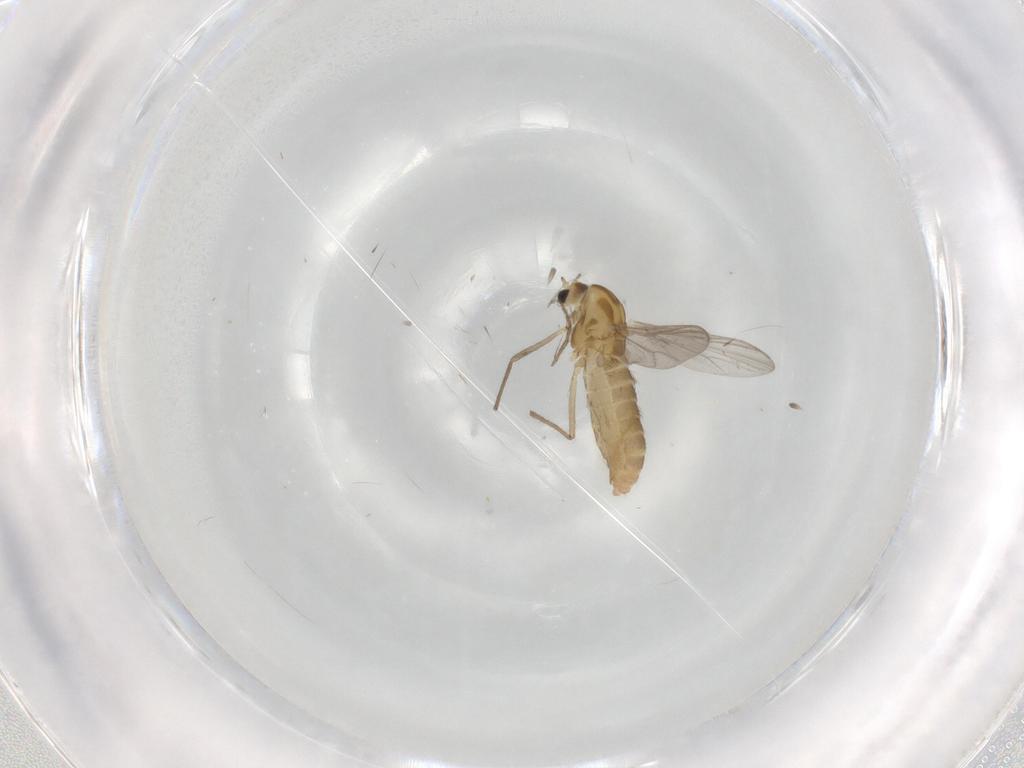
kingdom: Animalia
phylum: Arthropoda
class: Insecta
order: Diptera
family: Chironomidae
